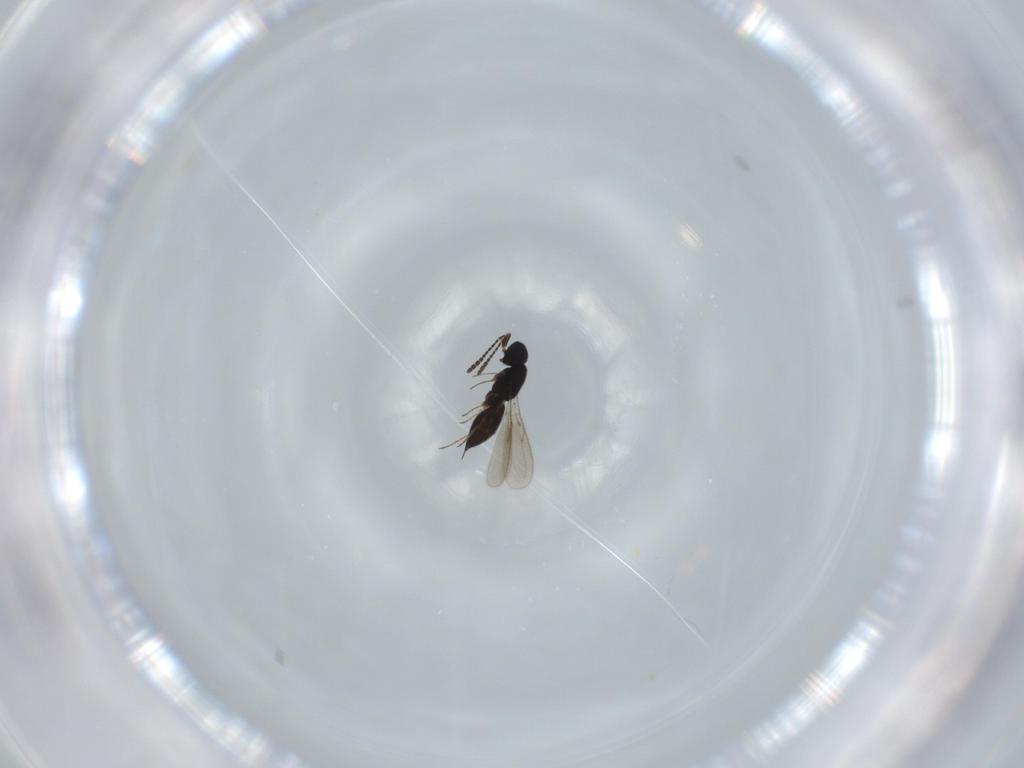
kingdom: Animalia
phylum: Arthropoda
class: Insecta
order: Hymenoptera
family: Scelionidae
